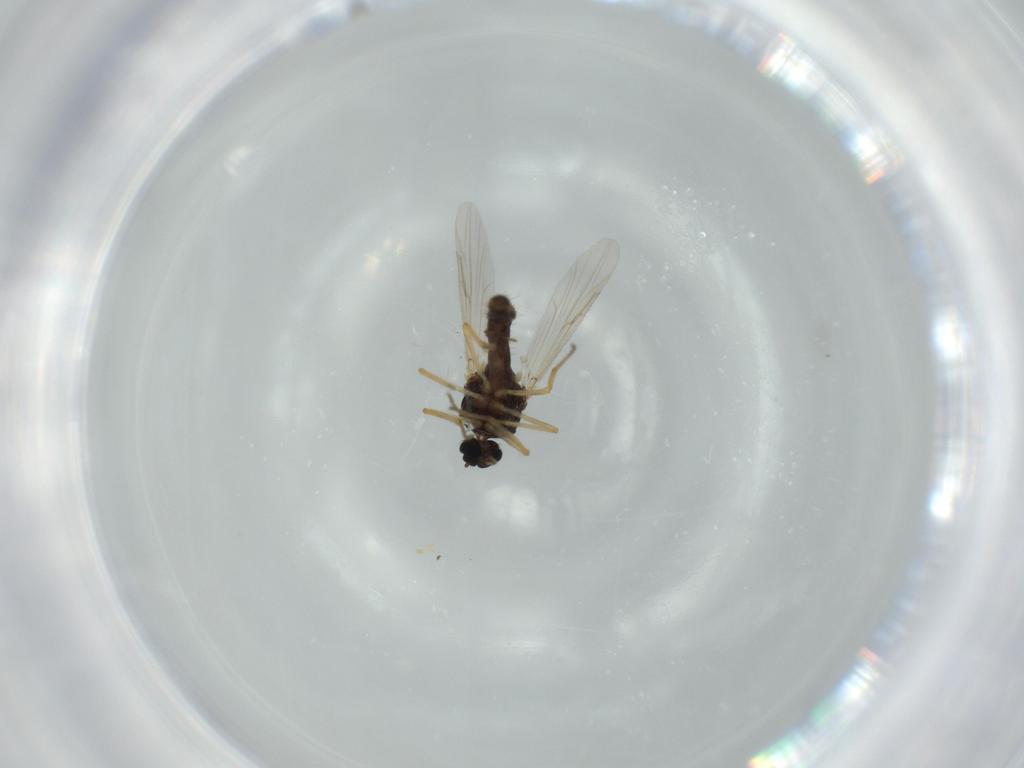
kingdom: Animalia
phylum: Arthropoda
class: Insecta
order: Diptera
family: Ceratopogonidae
